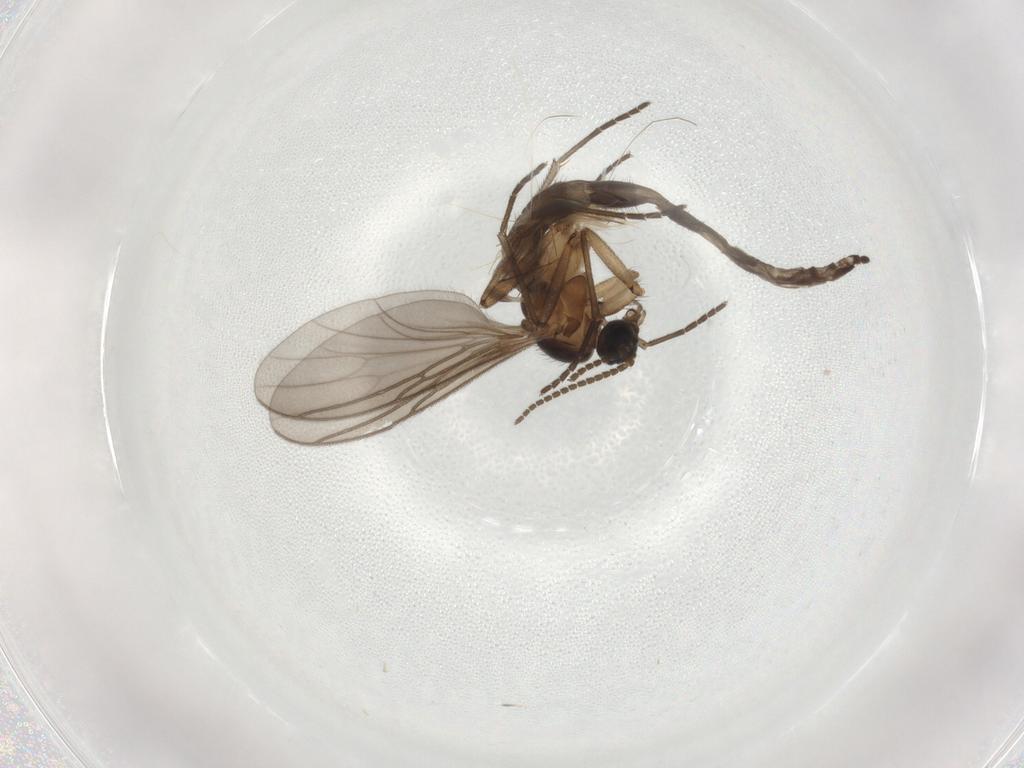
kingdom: Animalia
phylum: Arthropoda
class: Insecta
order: Diptera
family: Sciaridae
